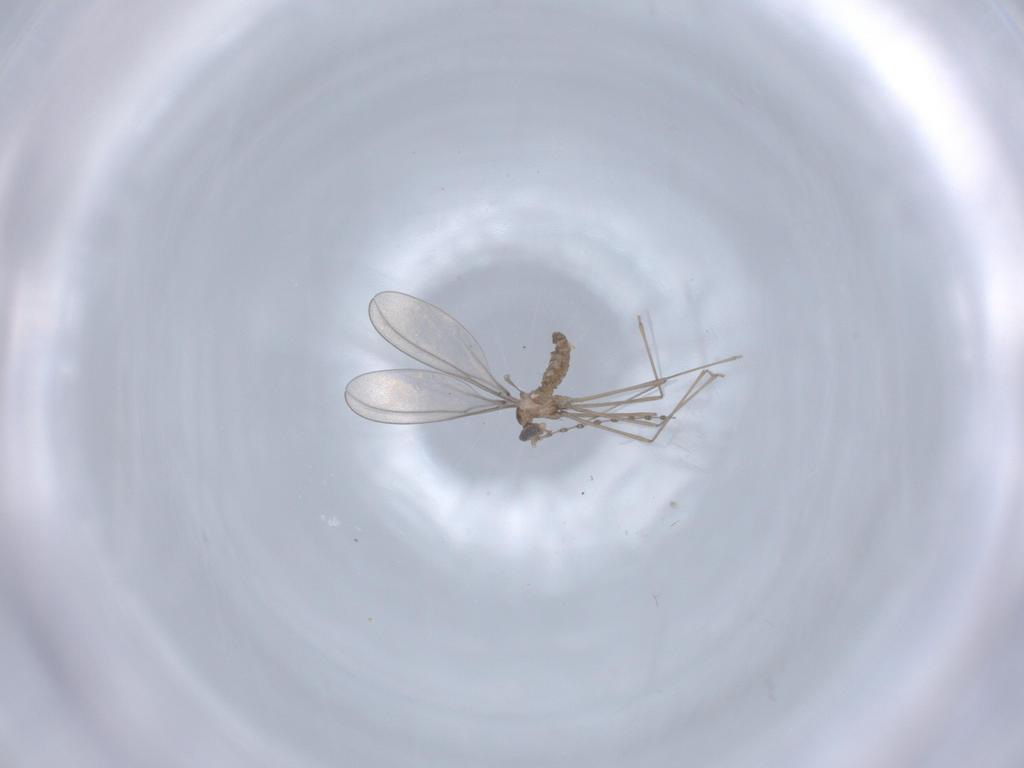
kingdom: Animalia
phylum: Arthropoda
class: Insecta
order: Diptera
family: Cecidomyiidae
